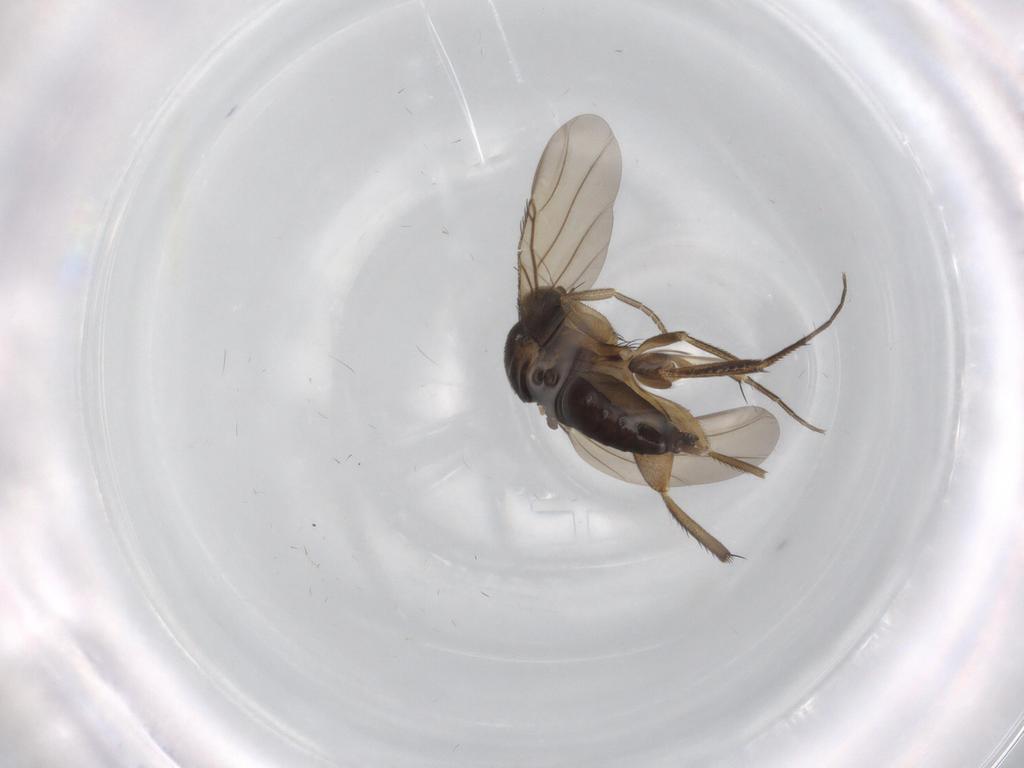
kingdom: Animalia
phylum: Arthropoda
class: Insecta
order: Diptera
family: Phoridae
